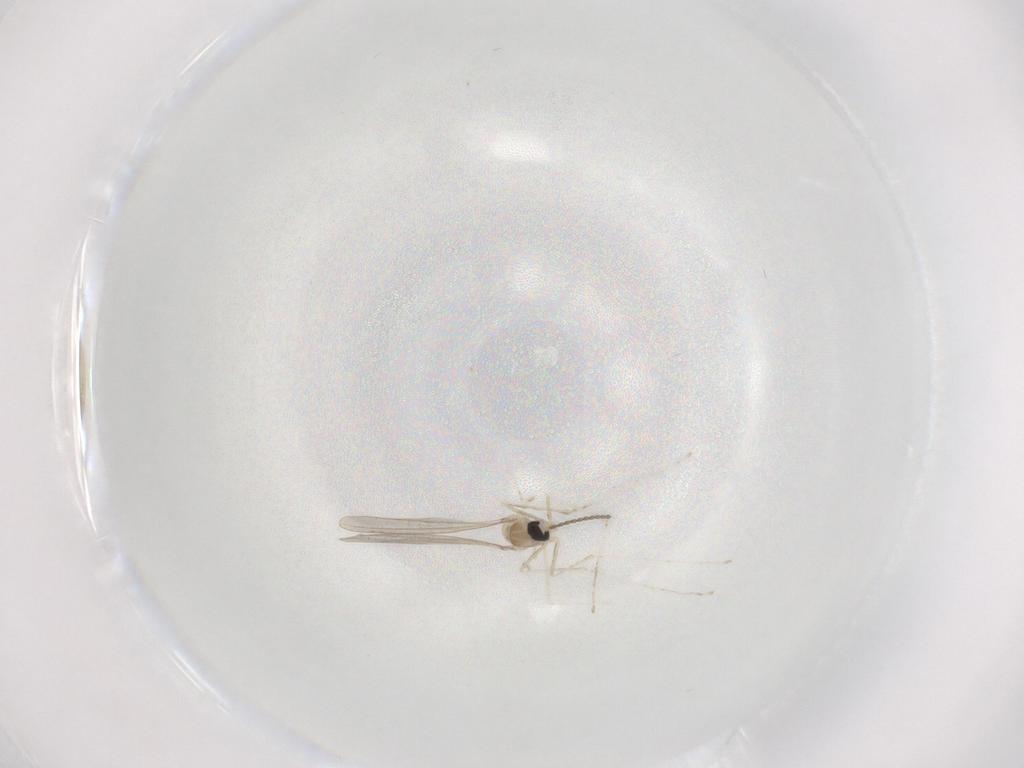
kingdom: Animalia
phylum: Arthropoda
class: Insecta
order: Diptera
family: Cecidomyiidae
